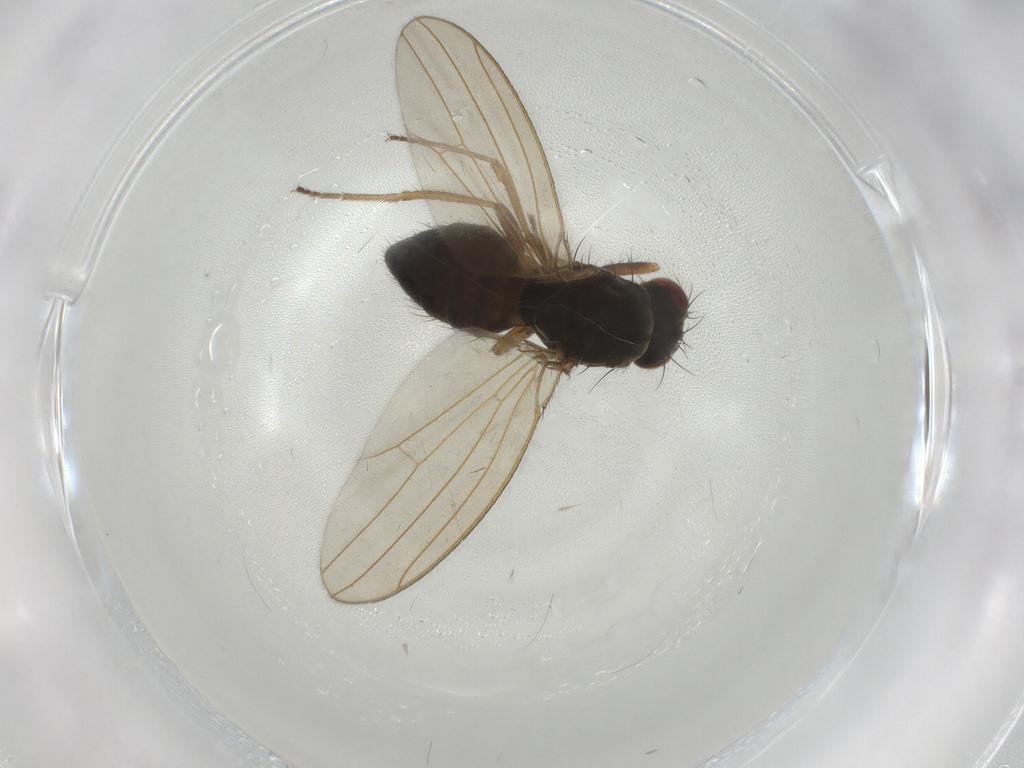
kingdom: Animalia
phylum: Arthropoda
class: Insecta
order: Diptera
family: Drosophilidae
